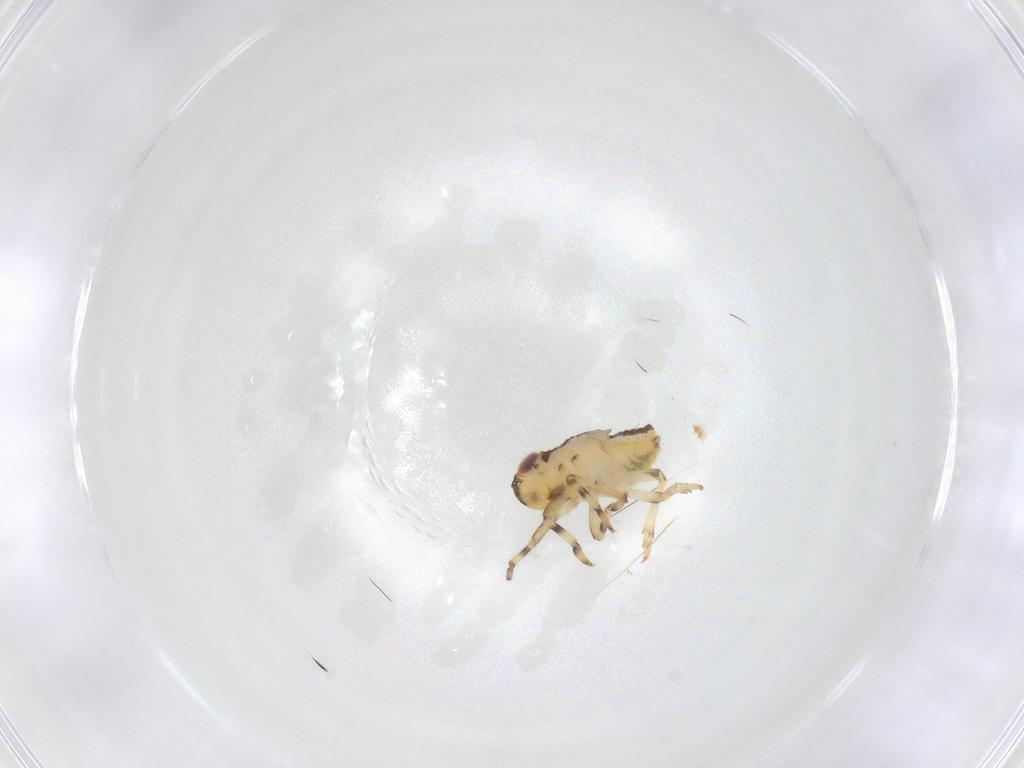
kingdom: Animalia
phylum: Arthropoda
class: Insecta
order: Hemiptera
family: Issidae
